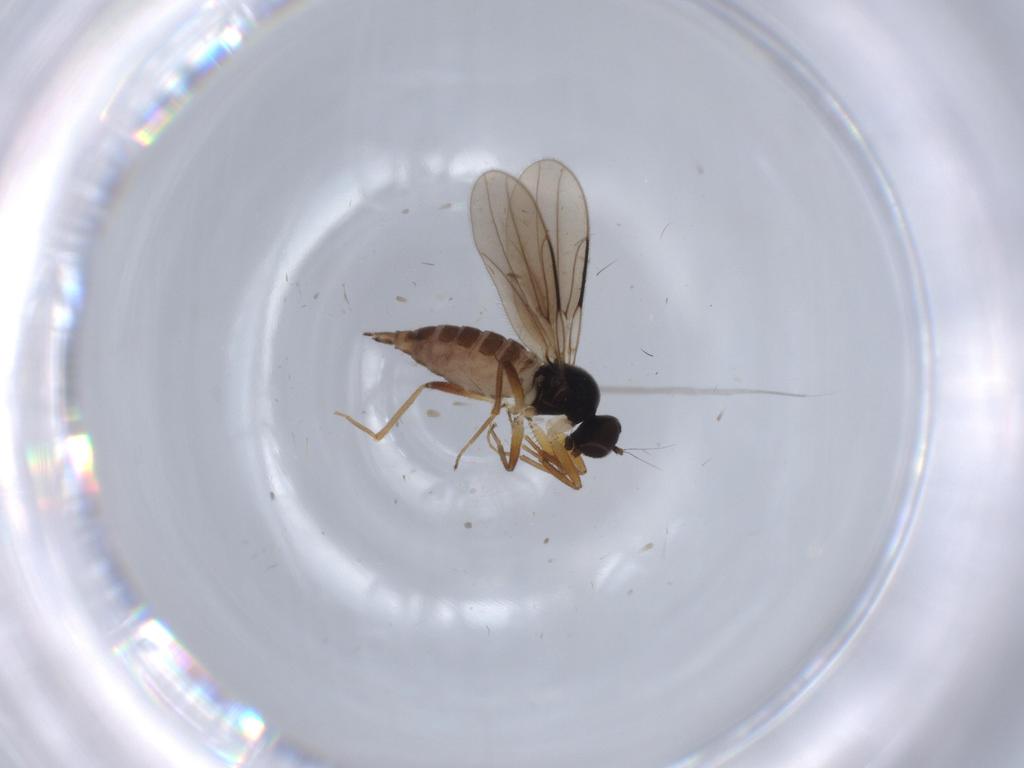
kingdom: Animalia
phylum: Arthropoda
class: Insecta
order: Diptera
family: Hybotidae
